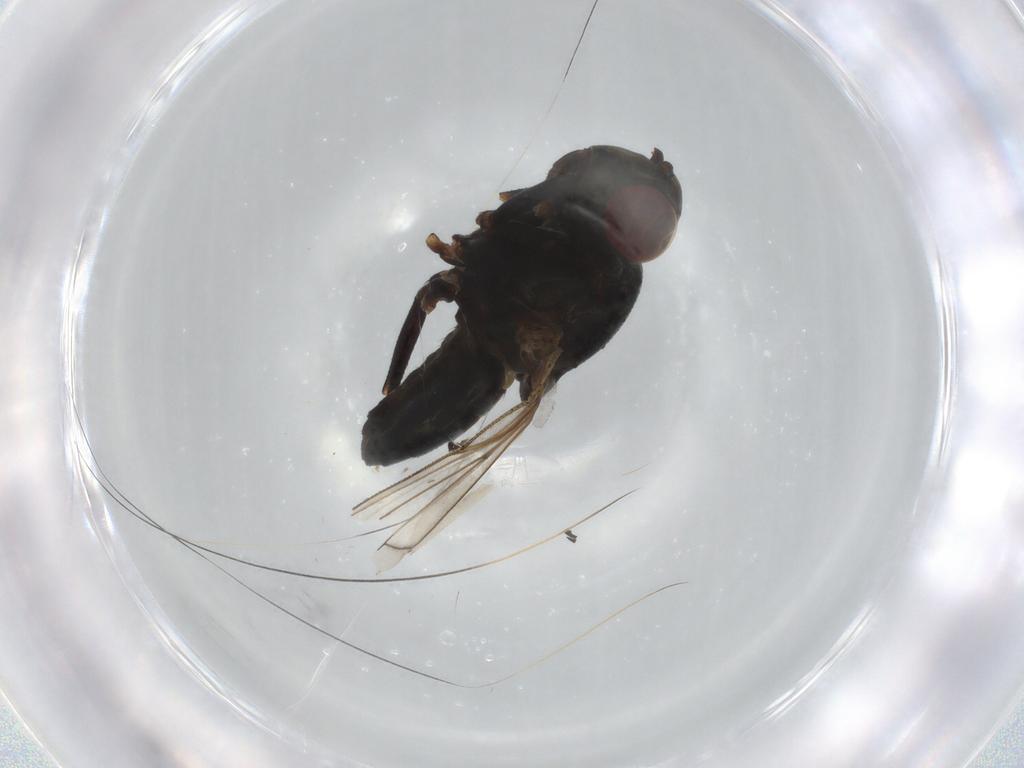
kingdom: Animalia
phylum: Arthropoda
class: Insecta
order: Diptera
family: Ephydridae
